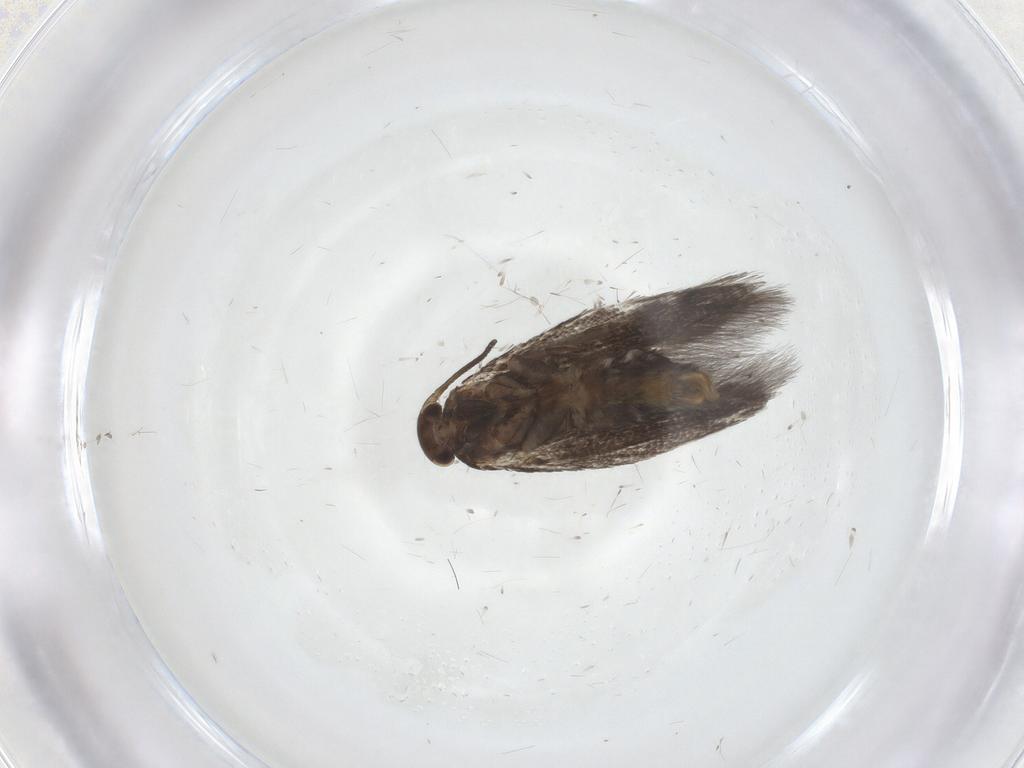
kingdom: Animalia
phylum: Arthropoda
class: Insecta
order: Lepidoptera
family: Elachistidae
